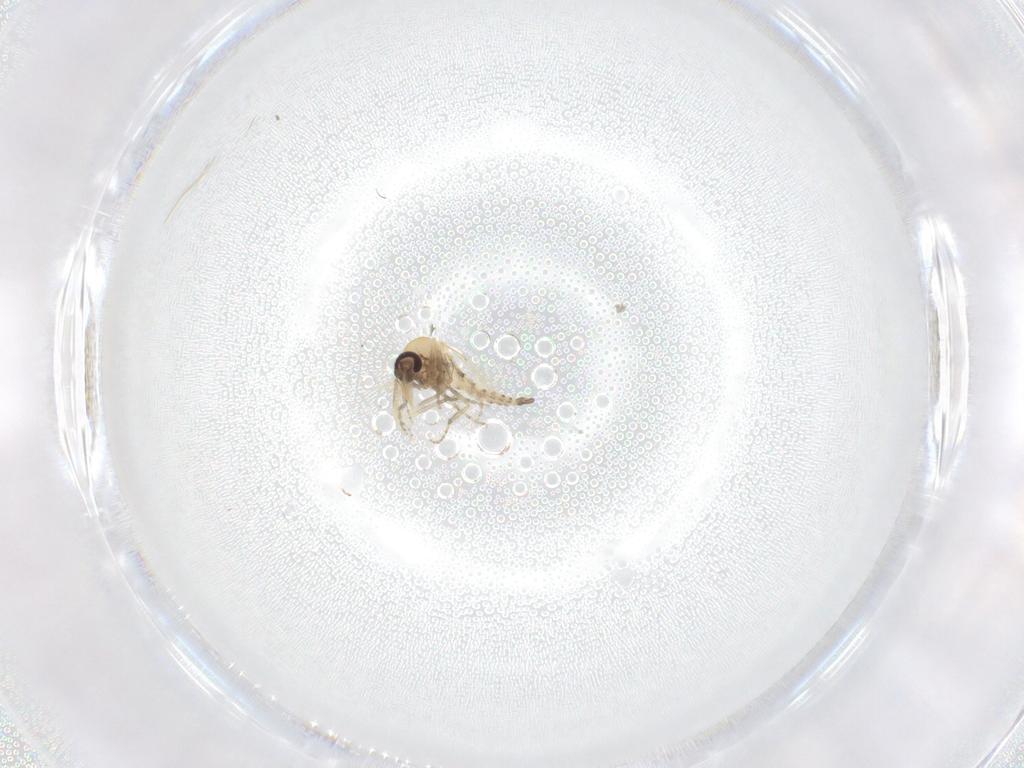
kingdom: Animalia
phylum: Arthropoda
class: Insecta
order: Diptera
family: Ceratopogonidae
